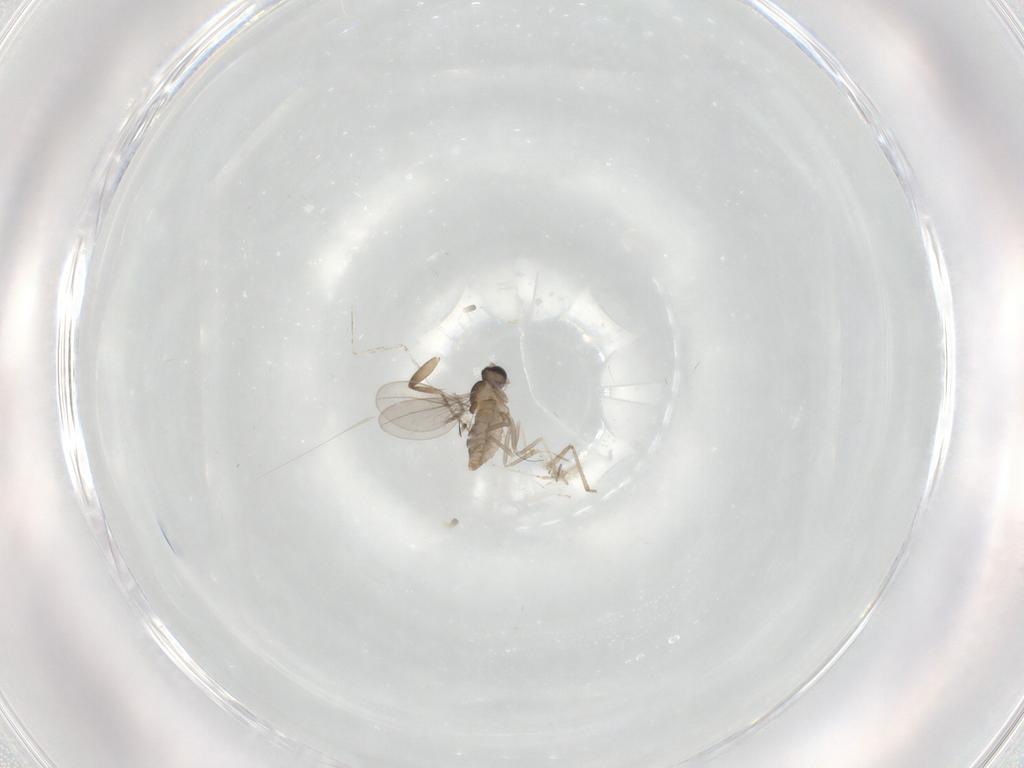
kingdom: Animalia
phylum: Arthropoda
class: Insecta
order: Diptera
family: Cecidomyiidae
